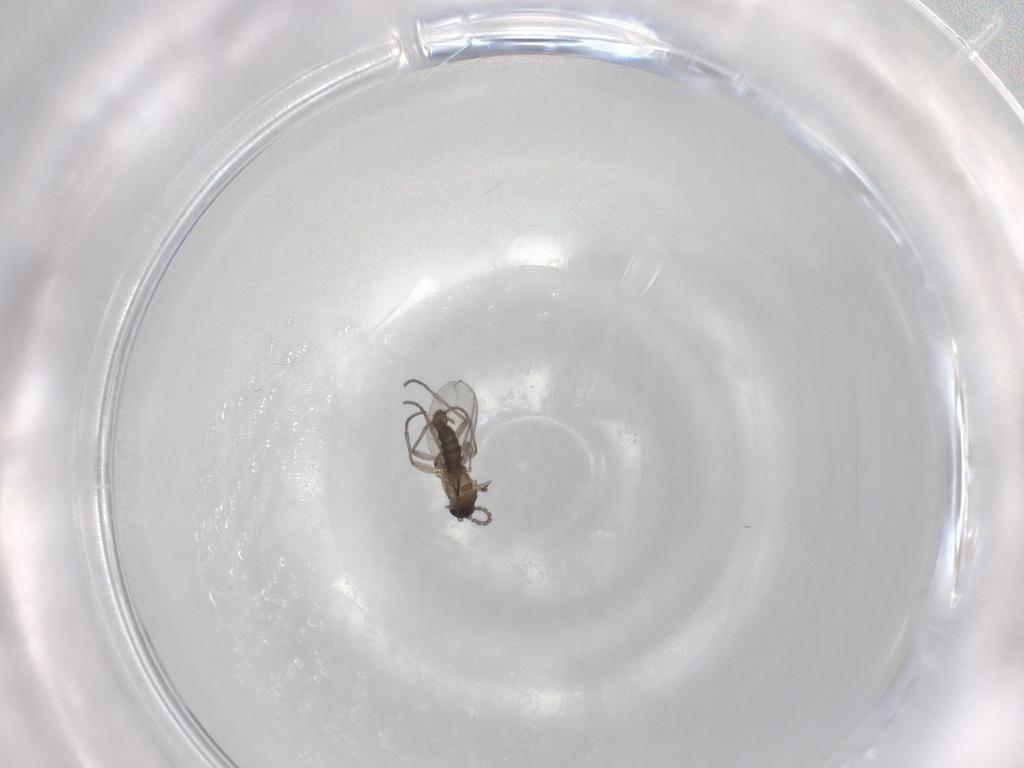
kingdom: Animalia
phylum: Arthropoda
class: Insecta
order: Diptera
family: Sciaridae
